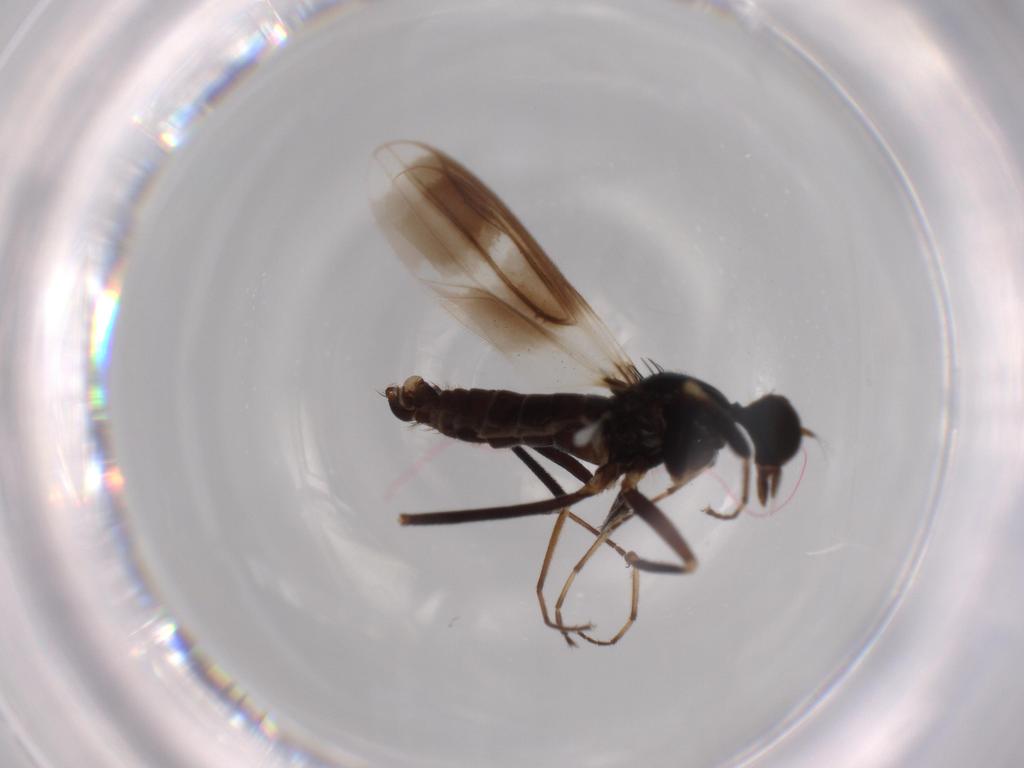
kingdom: Animalia
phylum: Arthropoda
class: Insecta
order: Diptera
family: Hybotidae
